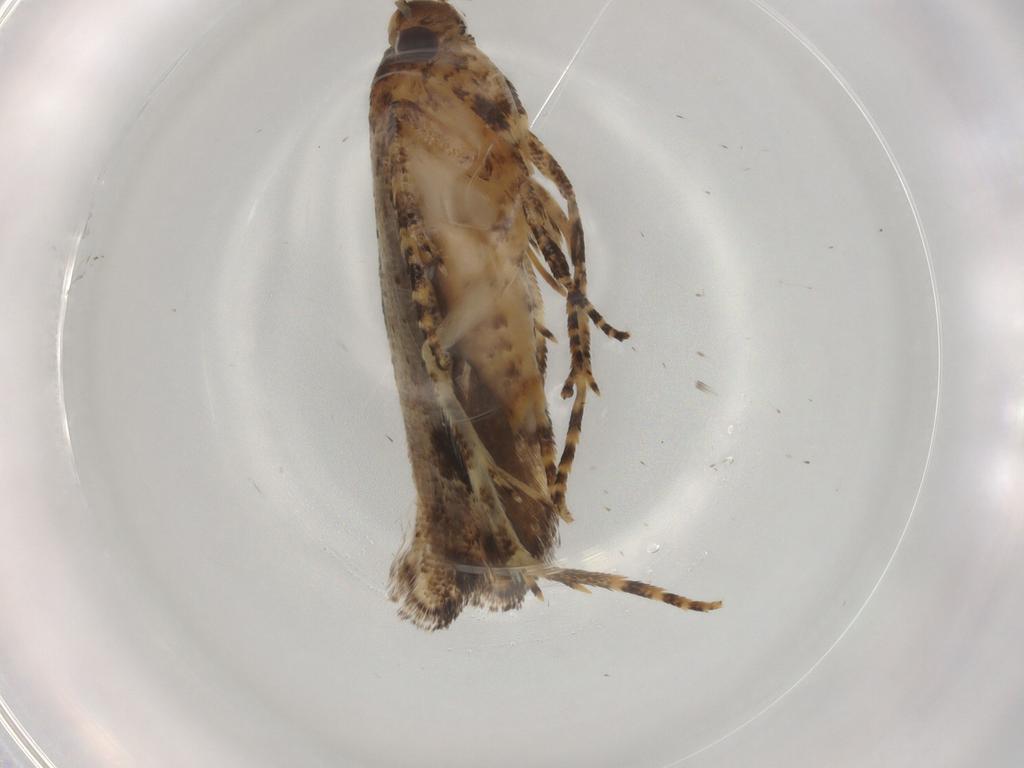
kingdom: Animalia
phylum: Arthropoda
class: Insecta
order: Lepidoptera
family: Gelechiidae
